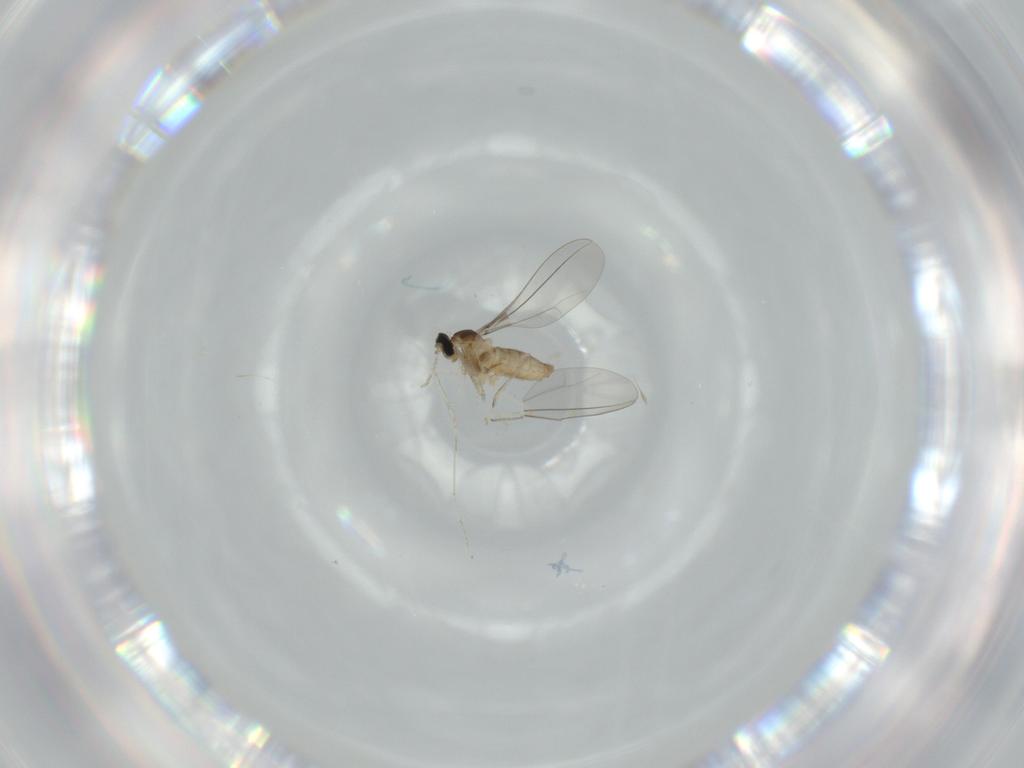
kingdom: Animalia
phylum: Arthropoda
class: Insecta
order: Diptera
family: Cecidomyiidae
